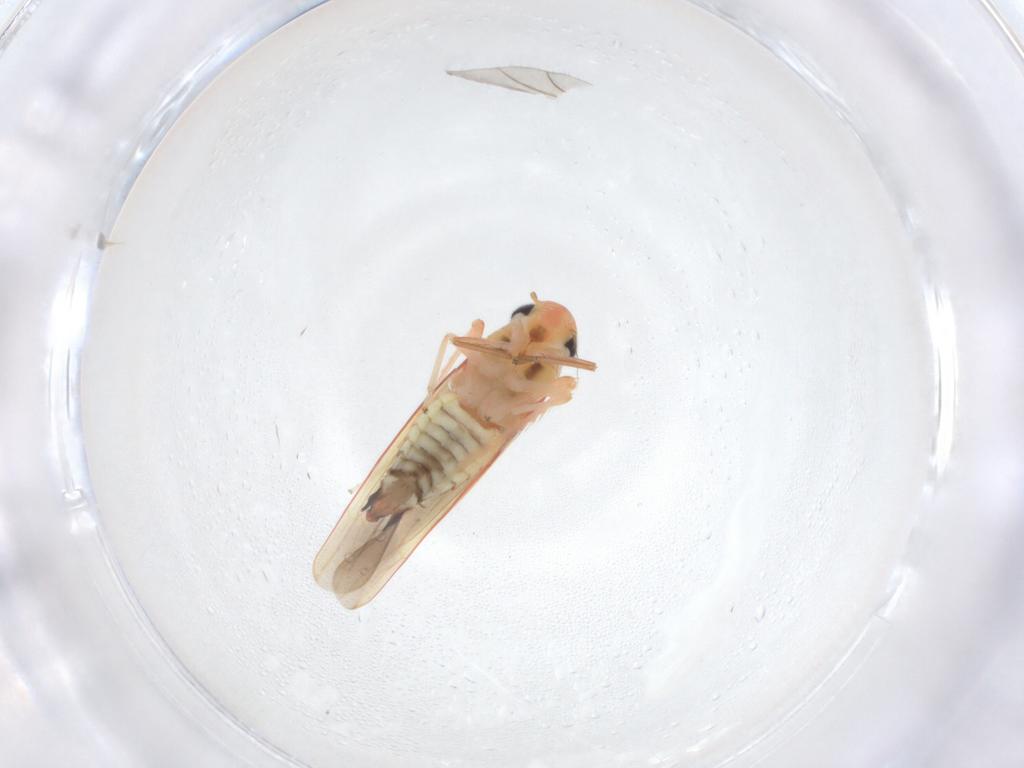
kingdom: Animalia
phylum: Arthropoda
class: Insecta
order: Hemiptera
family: Cicadellidae
